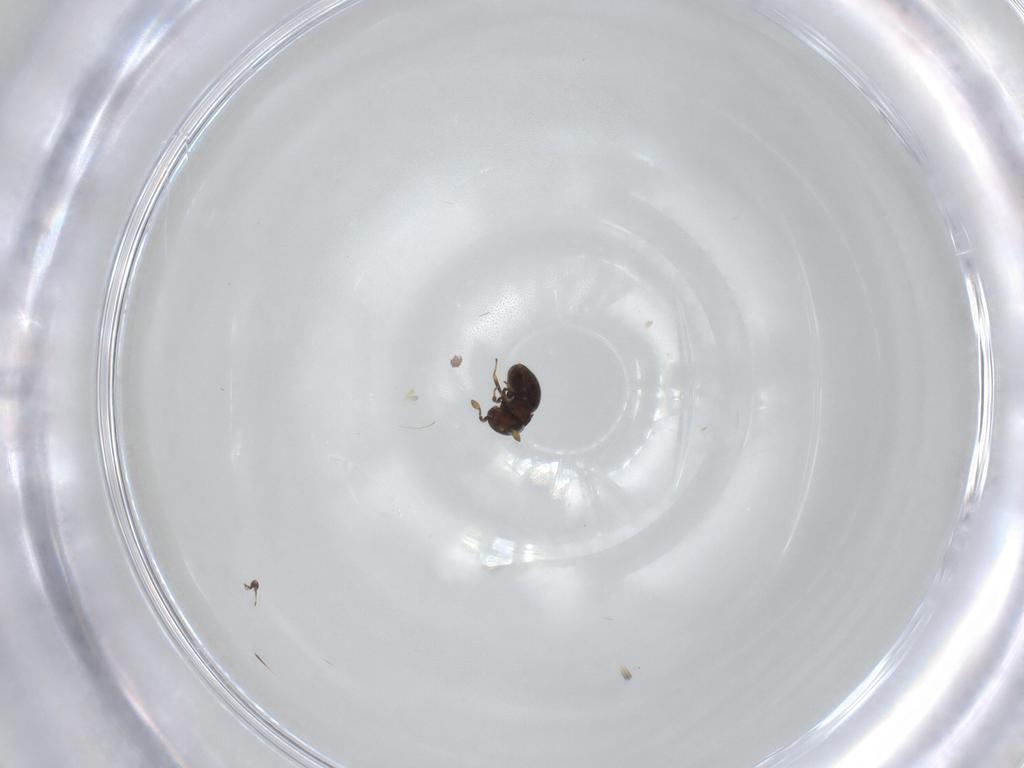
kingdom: Animalia
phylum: Arthropoda
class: Insecta
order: Hymenoptera
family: Scelionidae
